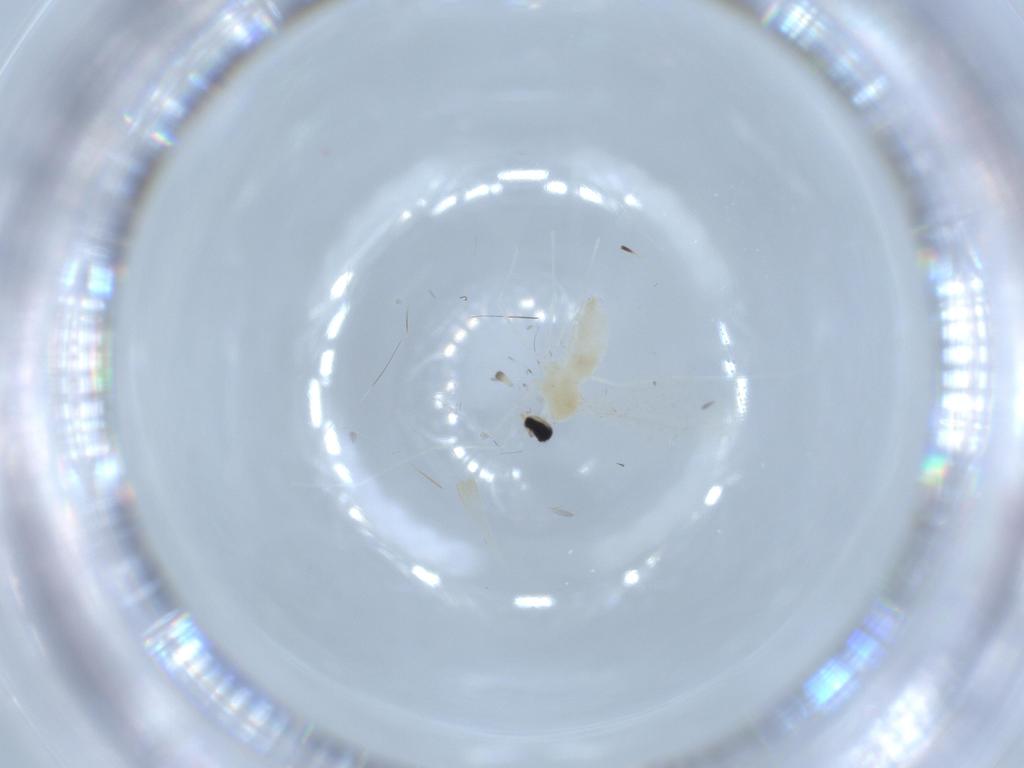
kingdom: Animalia
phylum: Arthropoda
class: Insecta
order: Diptera
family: Cecidomyiidae
